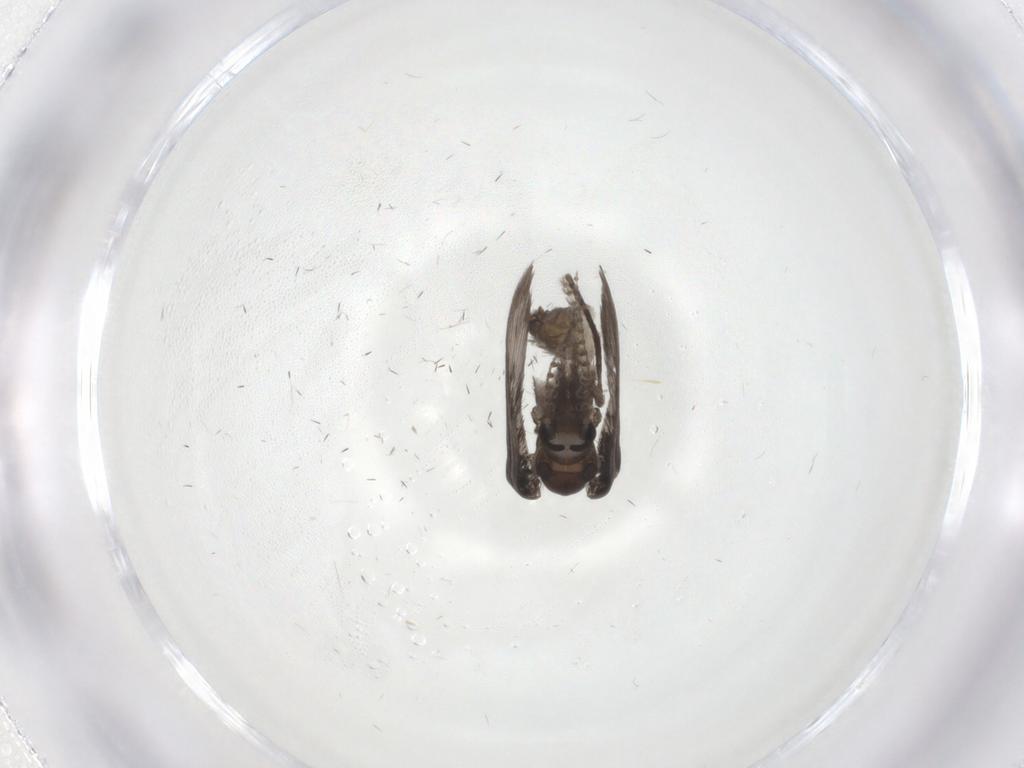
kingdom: Animalia
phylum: Arthropoda
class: Insecta
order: Diptera
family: Psychodidae
